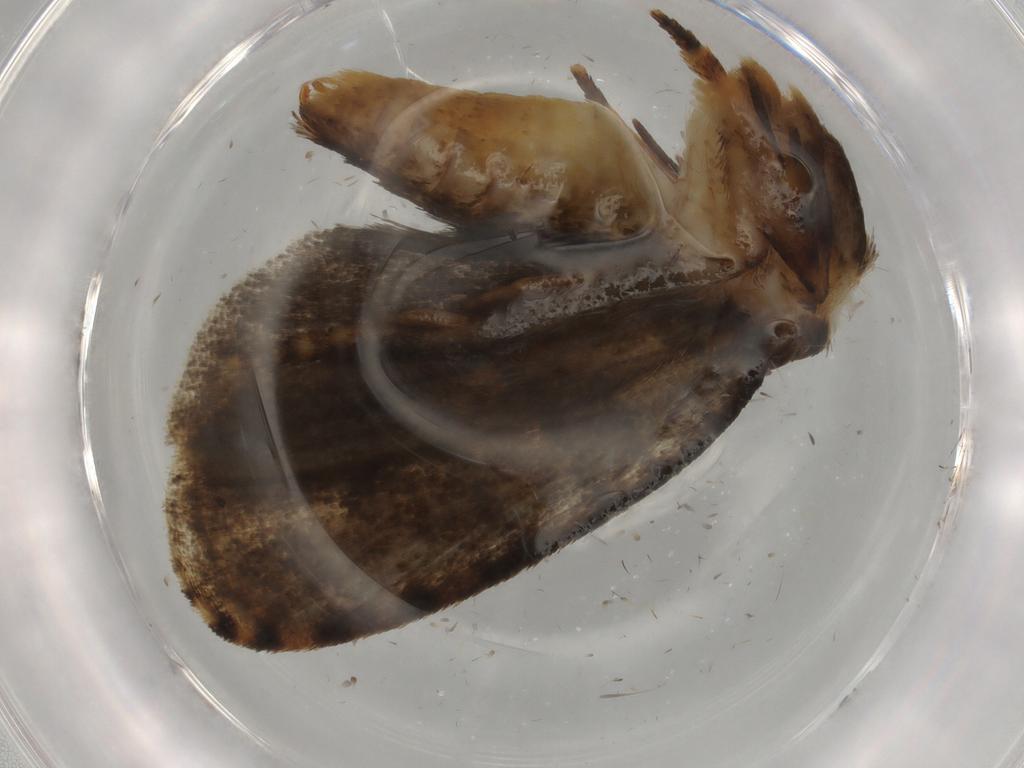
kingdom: Animalia
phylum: Arthropoda
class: Insecta
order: Lepidoptera
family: Tineidae
